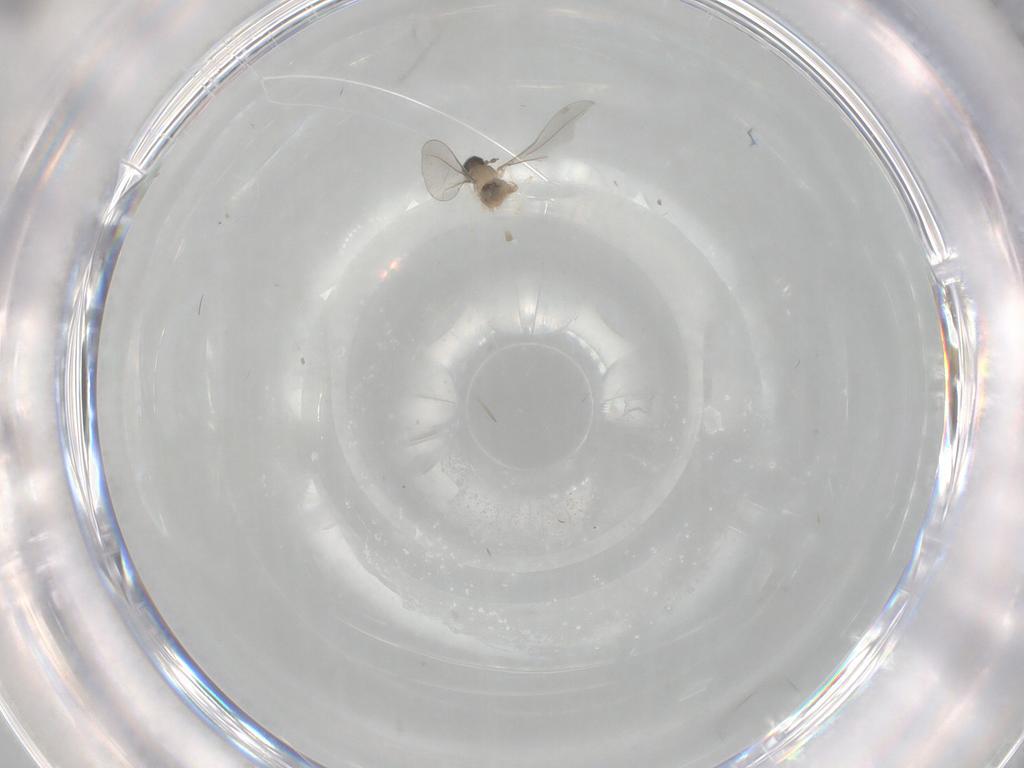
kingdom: Animalia
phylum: Arthropoda
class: Insecta
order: Diptera
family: Cecidomyiidae
